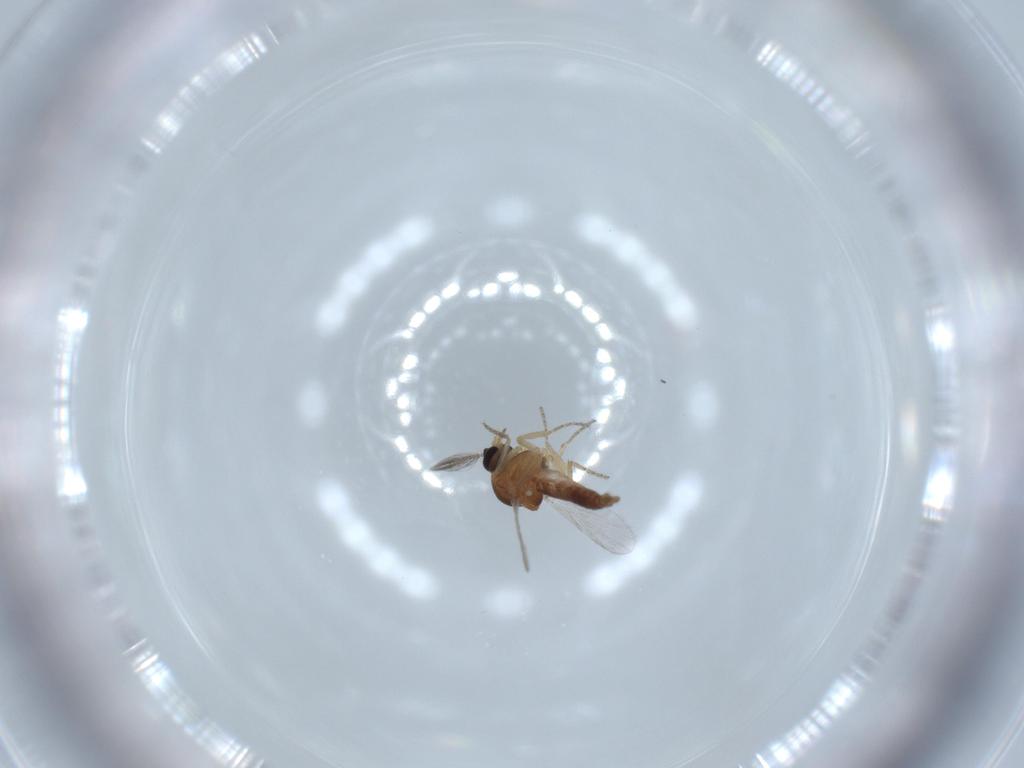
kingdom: Animalia
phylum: Arthropoda
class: Insecta
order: Diptera
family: Ceratopogonidae
